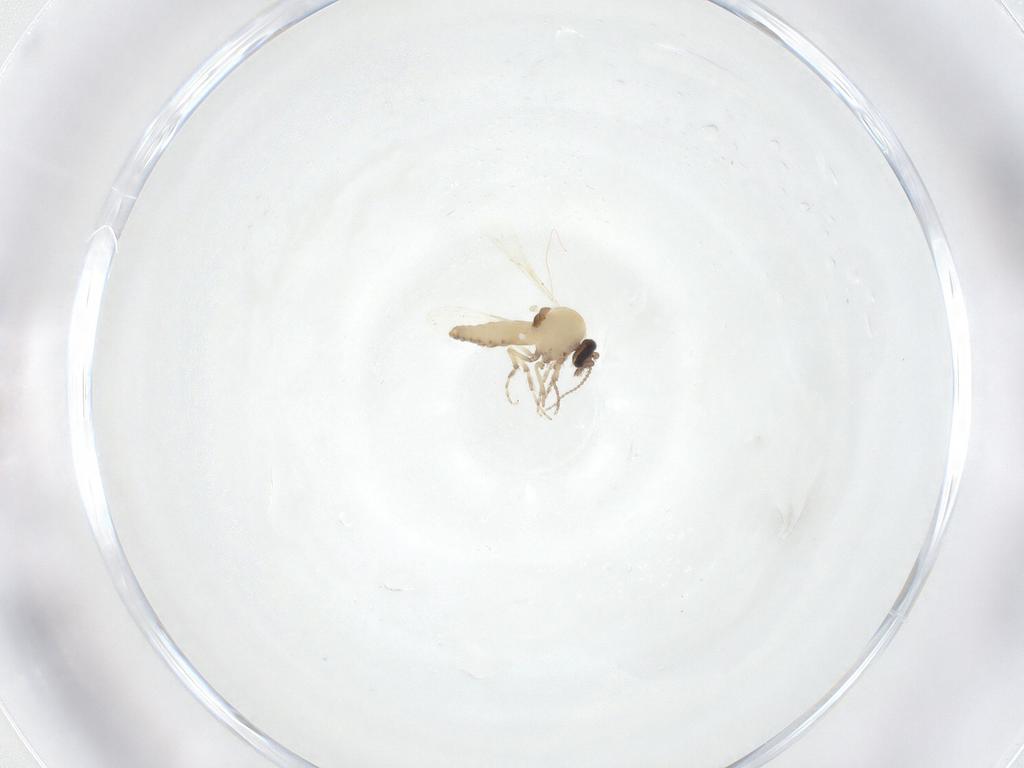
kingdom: Animalia
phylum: Arthropoda
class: Insecta
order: Diptera
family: Ceratopogonidae
